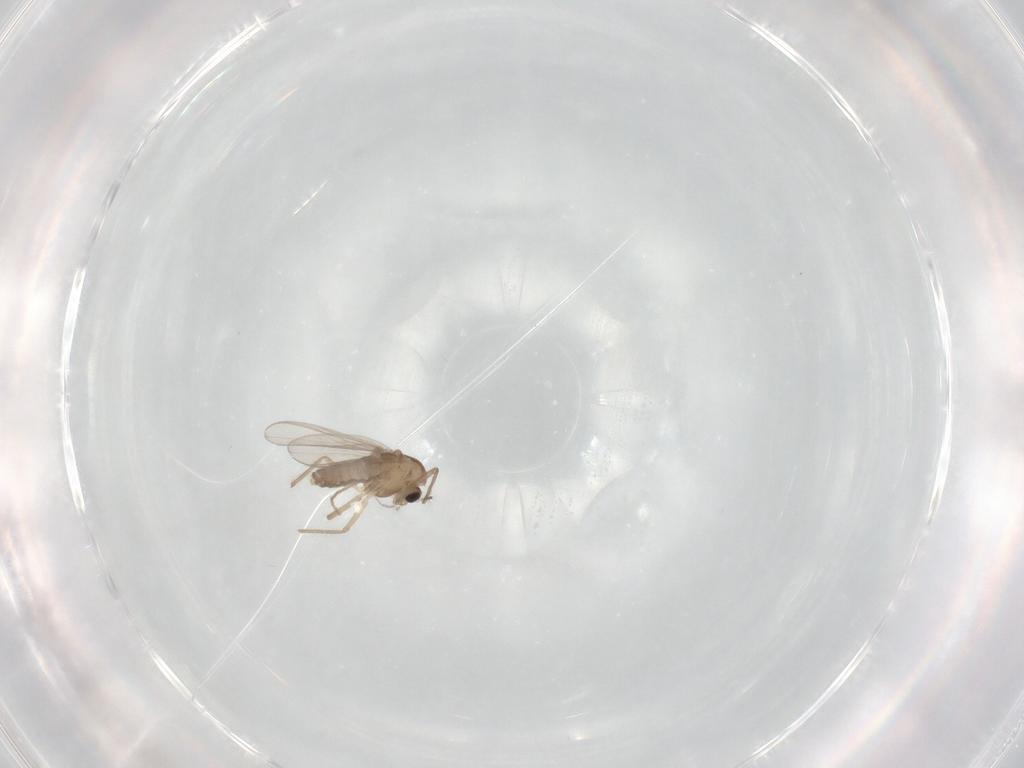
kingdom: Animalia
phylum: Arthropoda
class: Insecta
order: Diptera
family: Chironomidae
